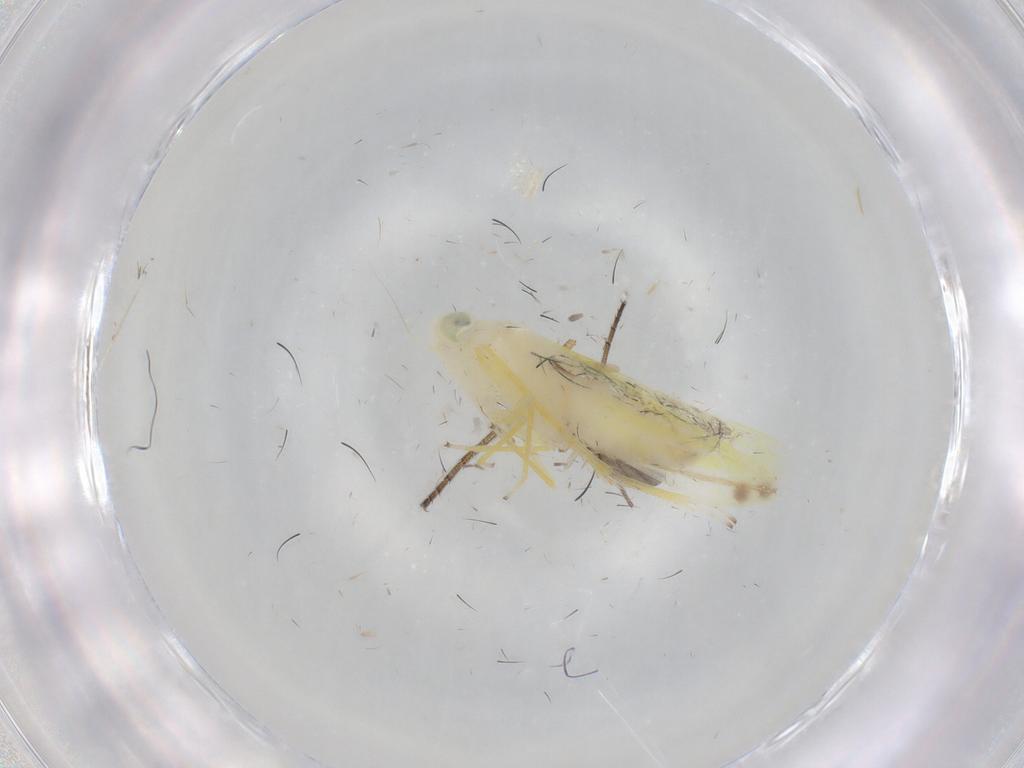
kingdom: Animalia
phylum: Arthropoda
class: Insecta
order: Hemiptera
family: Cicadellidae
